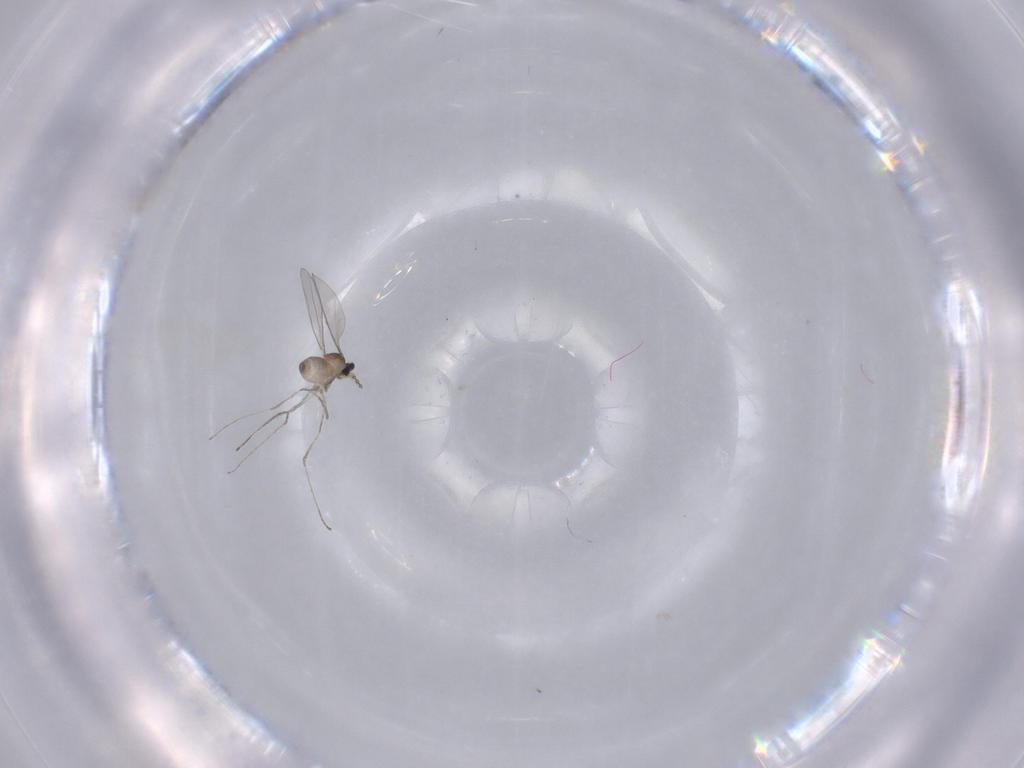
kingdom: Animalia
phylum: Arthropoda
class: Insecta
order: Diptera
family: Cecidomyiidae
